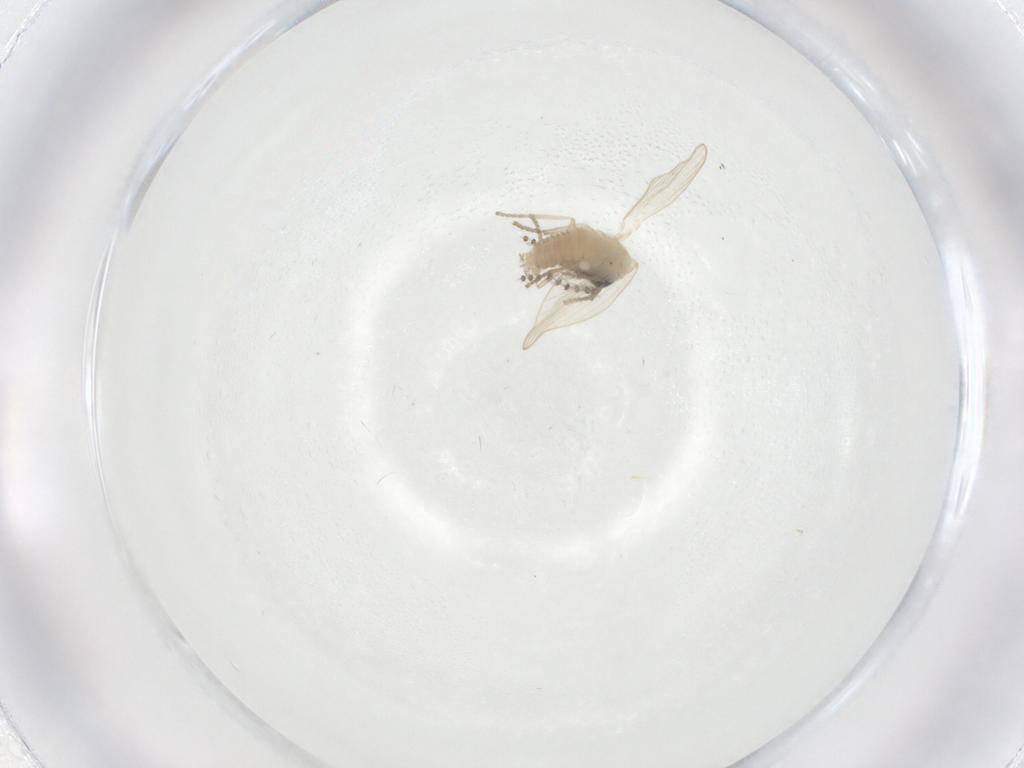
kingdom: Animalia
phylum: Arthropoda
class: Insecta
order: Diptera
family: Psychodidae
